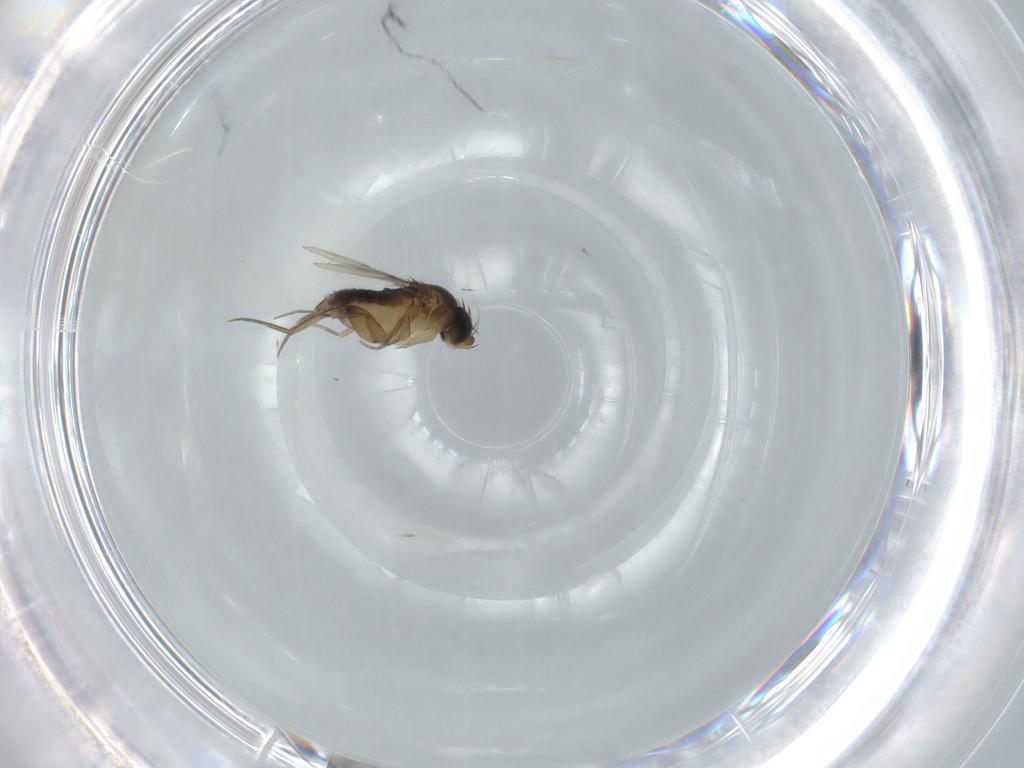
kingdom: Animalia
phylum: Arthropoda
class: Insecta
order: Diptera
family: Phoridae
